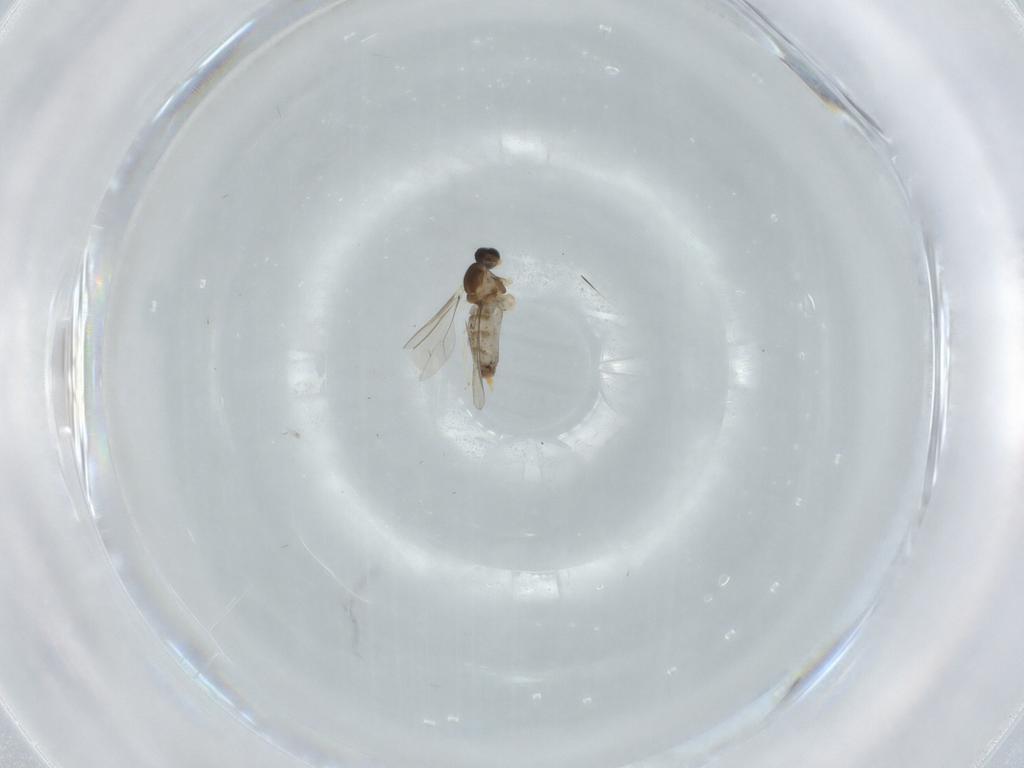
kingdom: Animalia
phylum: Arthropoda
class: Insecta
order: Diptera
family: Cecidomyiidae
